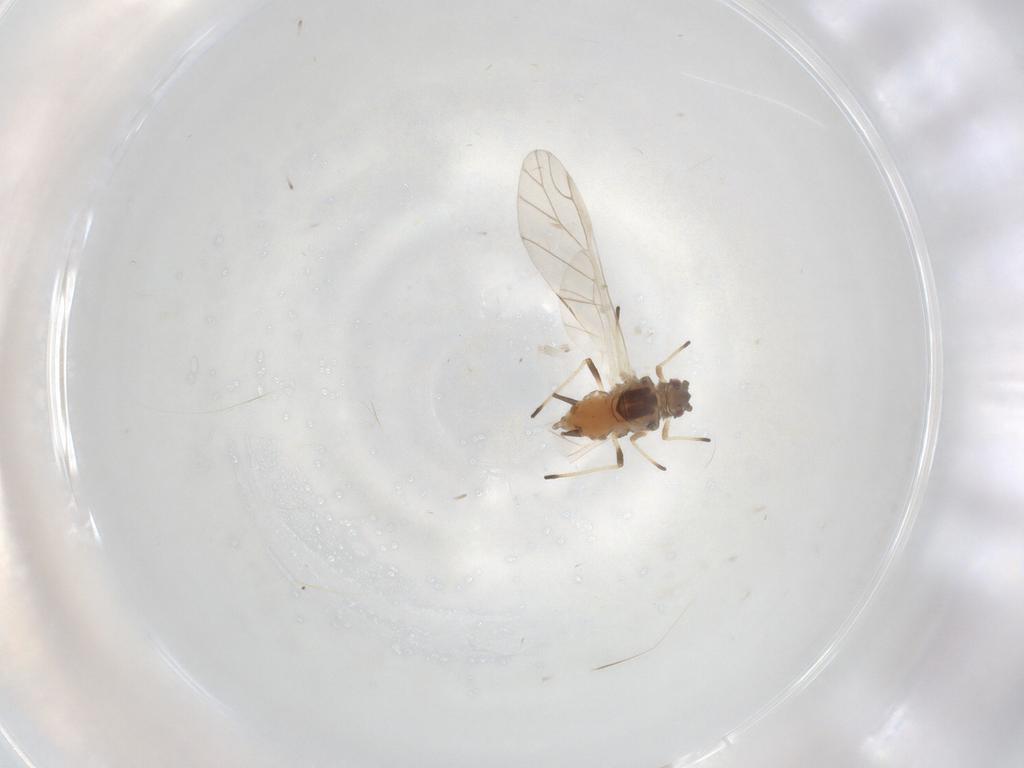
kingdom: Animalia
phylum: Arthropoda
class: Insecta
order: Hemiptera
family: Aphididae
